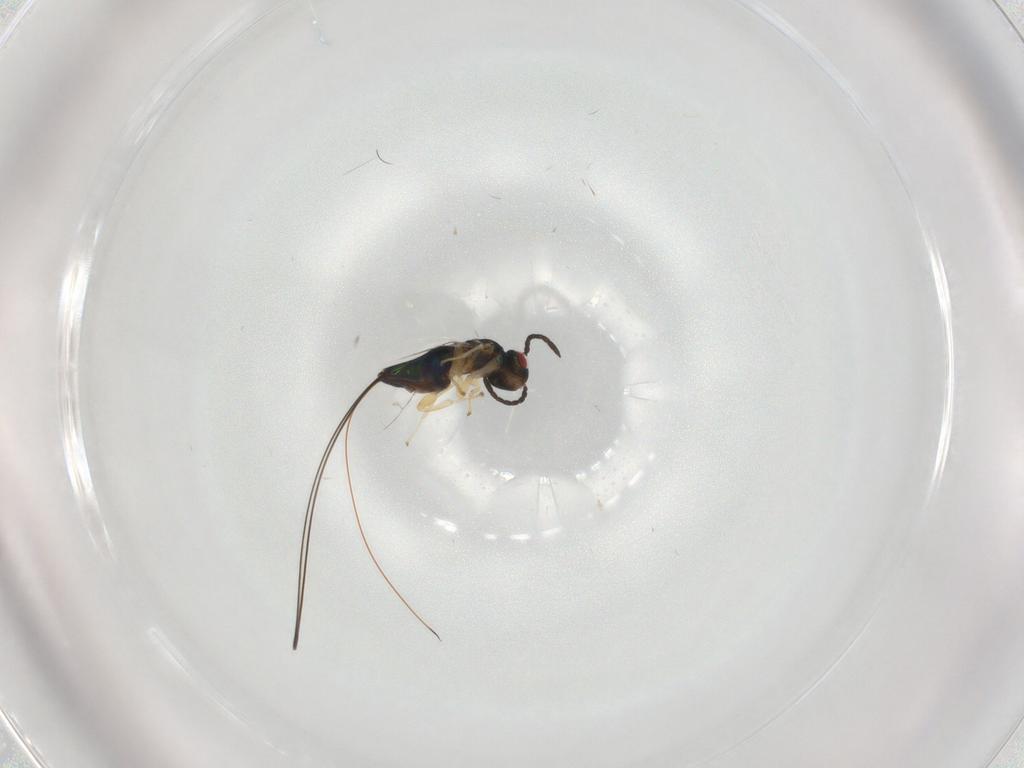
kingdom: Animalia
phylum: Arthropoda
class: Insecta
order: Hymenoptera
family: Pteromalidae
